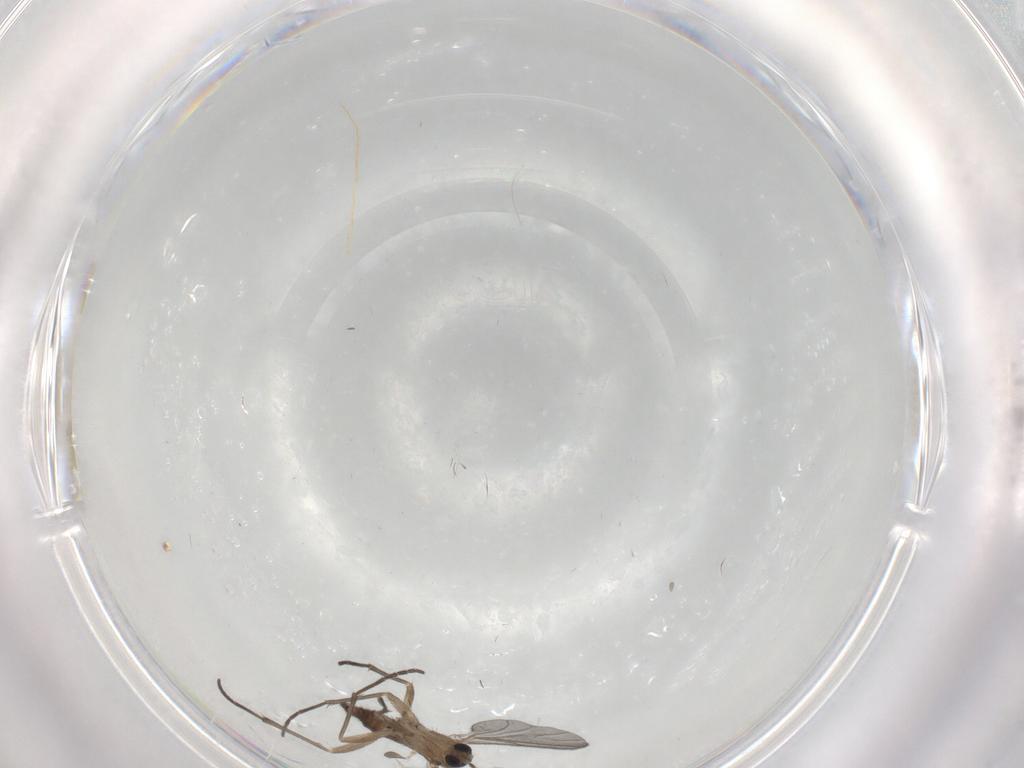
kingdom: Animalia
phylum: Arthropoda
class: Insecta
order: Diptera
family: Sciaridae
